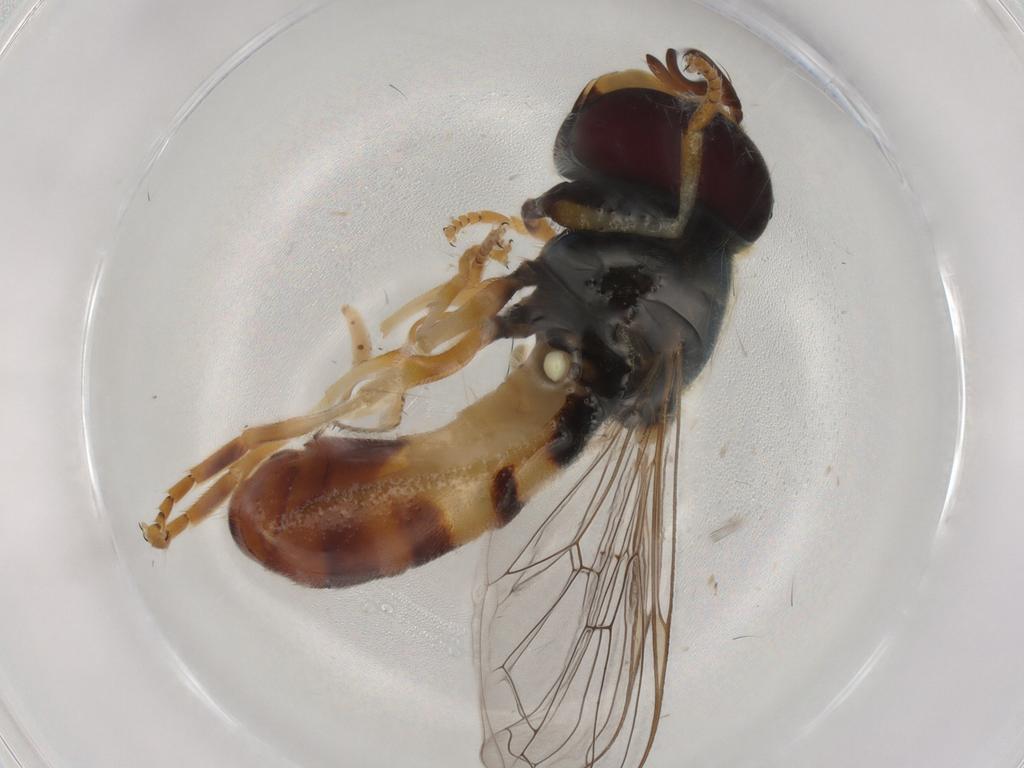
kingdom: Animalia
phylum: Arthropoda
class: Insecta
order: Diptera
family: Syrphidae
